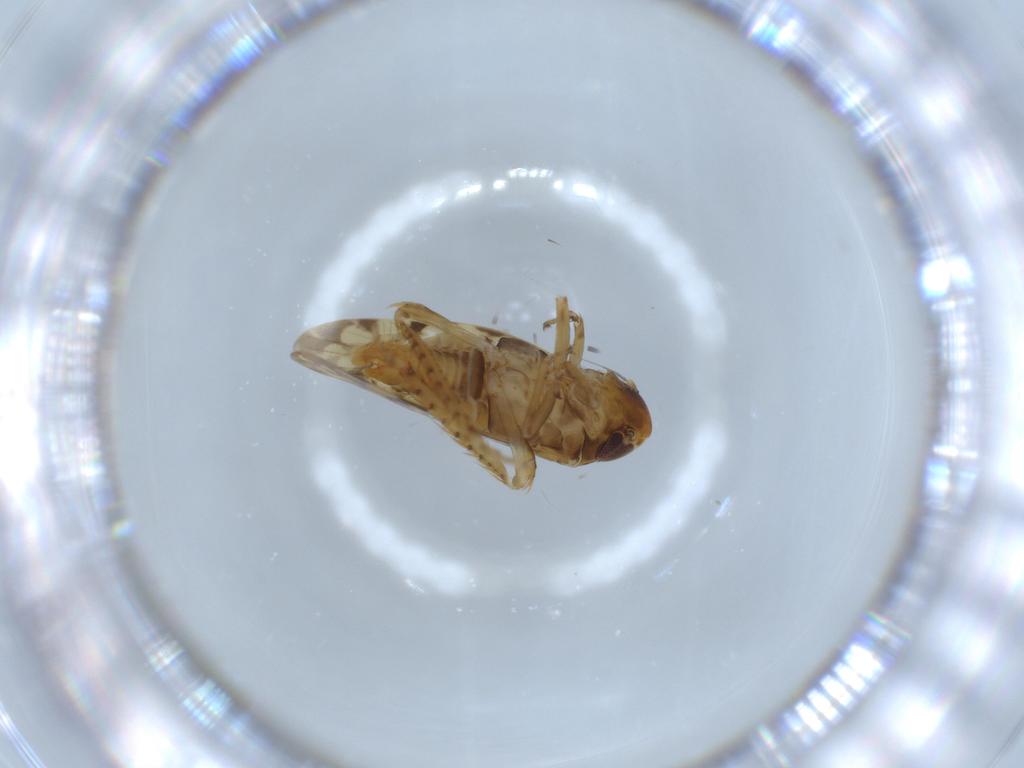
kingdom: Animalia
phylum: Arthropoda
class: Insecta
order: Hemiptera
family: Cicadellidae
